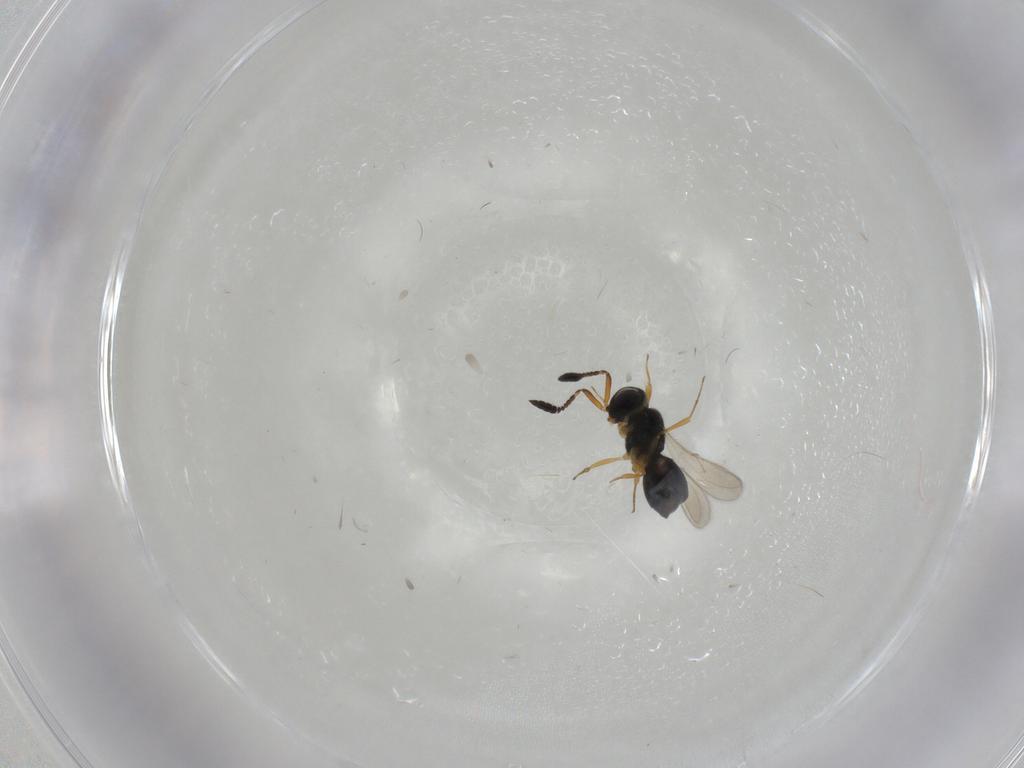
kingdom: Animalia
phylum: Arthropoda
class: Insecta
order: Hymenoptera
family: Scelionidae
